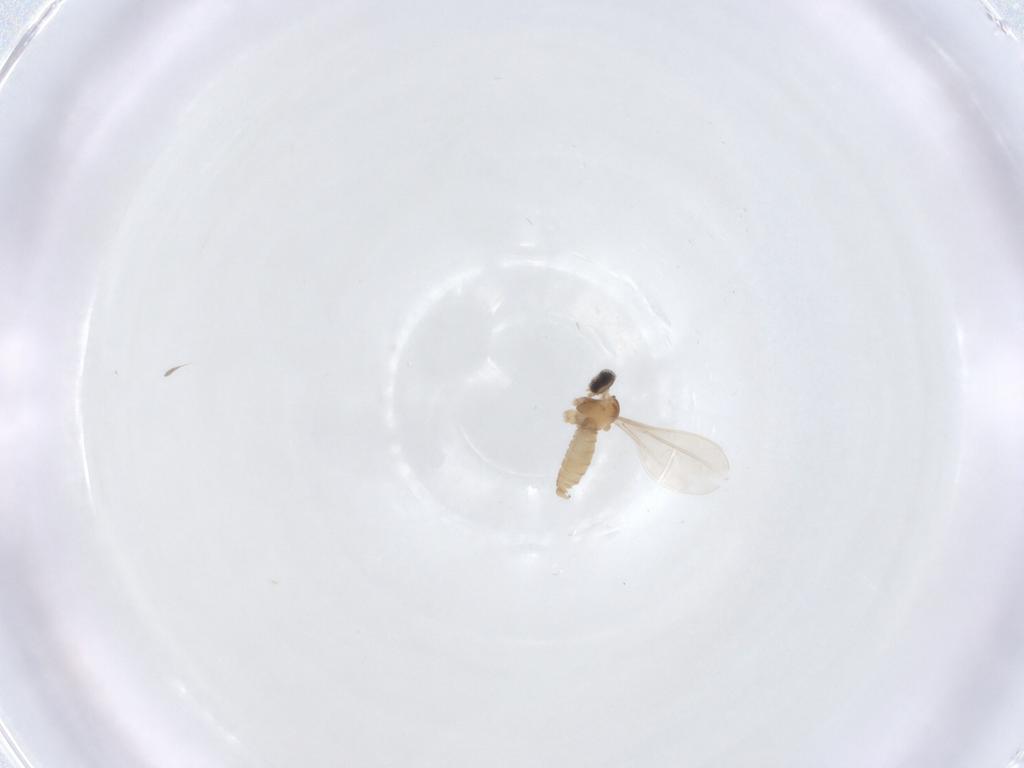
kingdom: Animalia
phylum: Arthropoda
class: Insecta
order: Diptera
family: Cecidomyiidae
